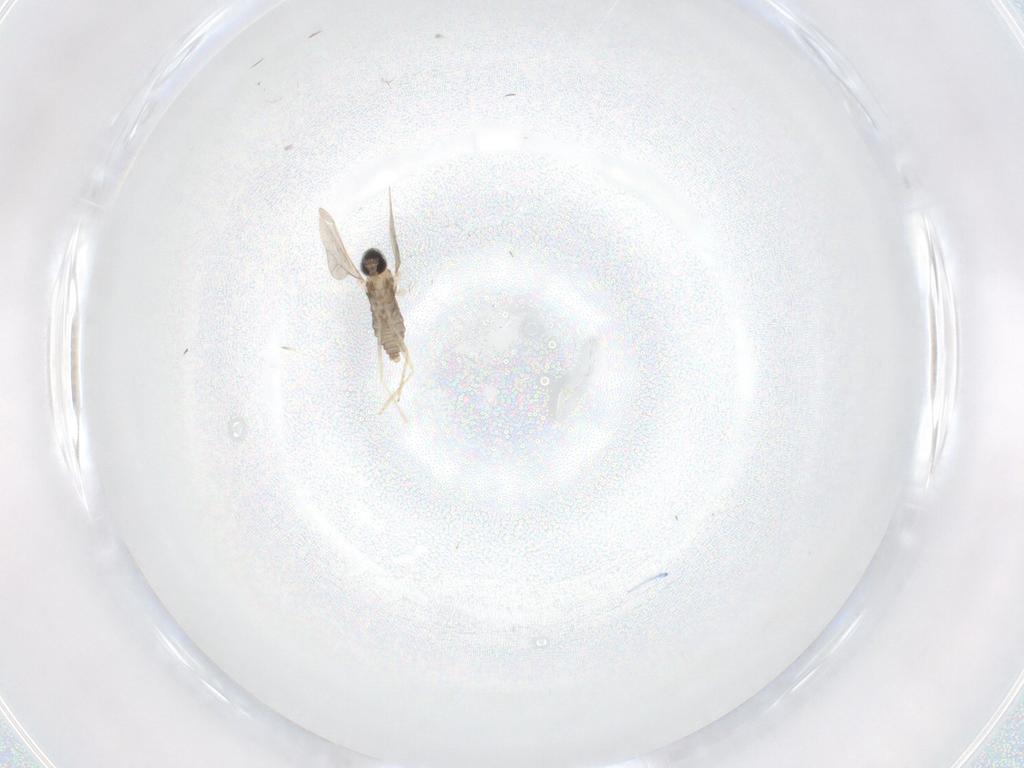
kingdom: Animalia
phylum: Arthropoda
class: Insecta
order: Diptera
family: Cecidomyiidae
